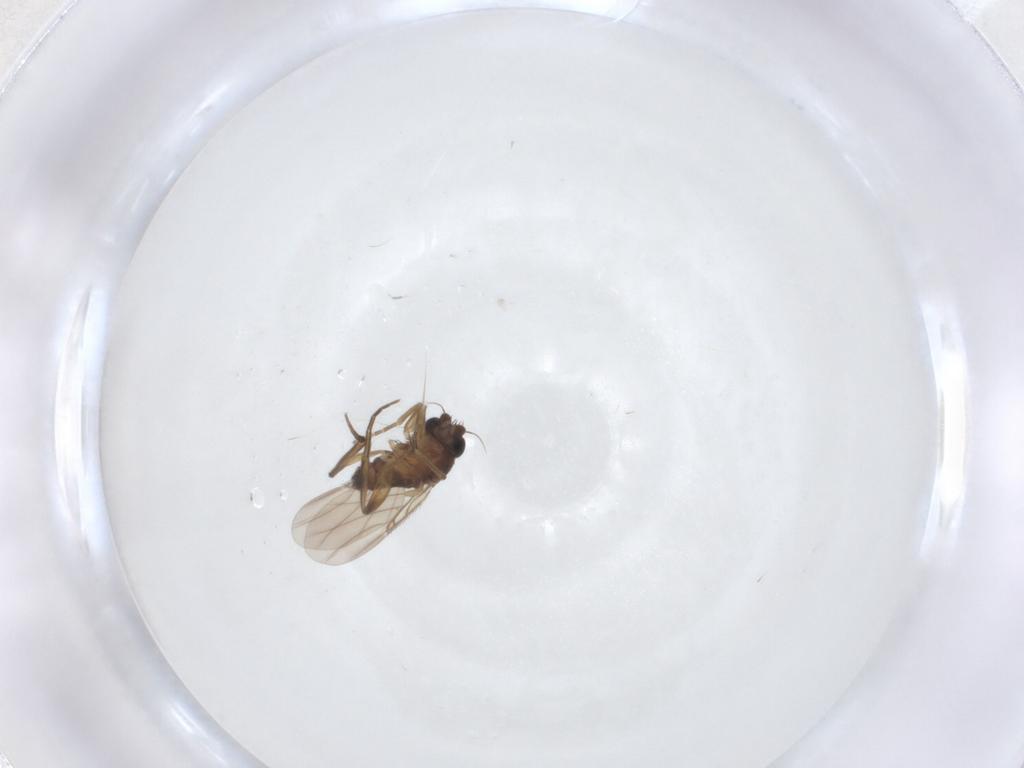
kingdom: Animalia
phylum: Arthropoda
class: Insecta
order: Diptera
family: Phoridae
